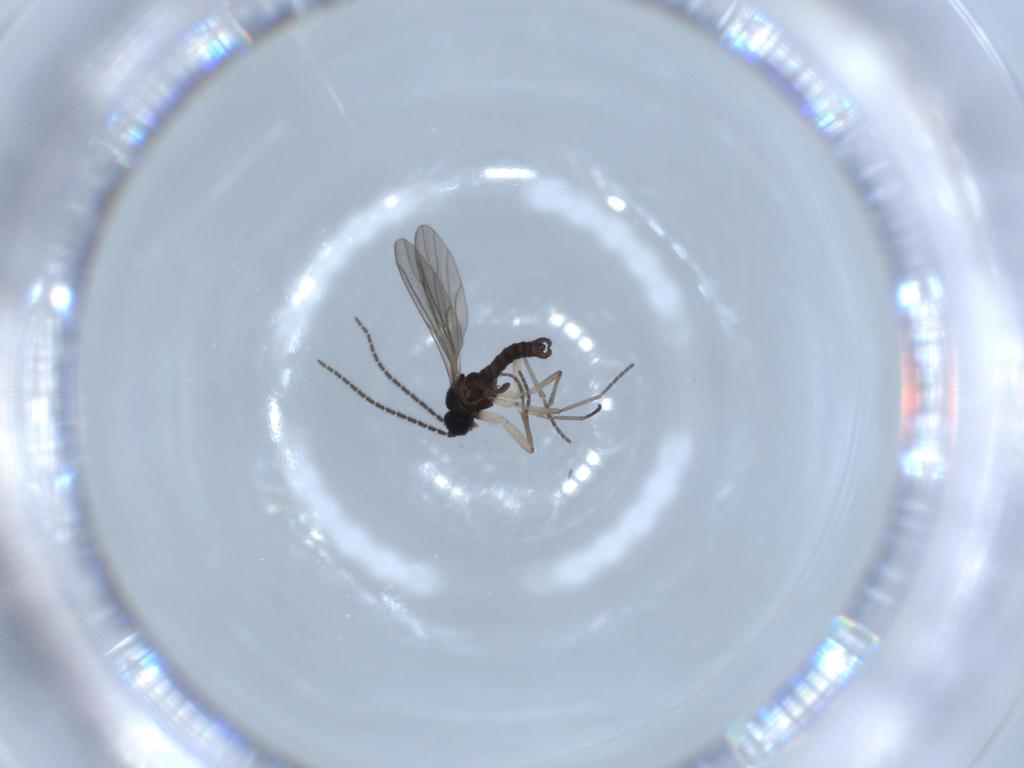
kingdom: Animalia
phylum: Arthropoda
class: Insecta
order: Diptera
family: Sciaridae
